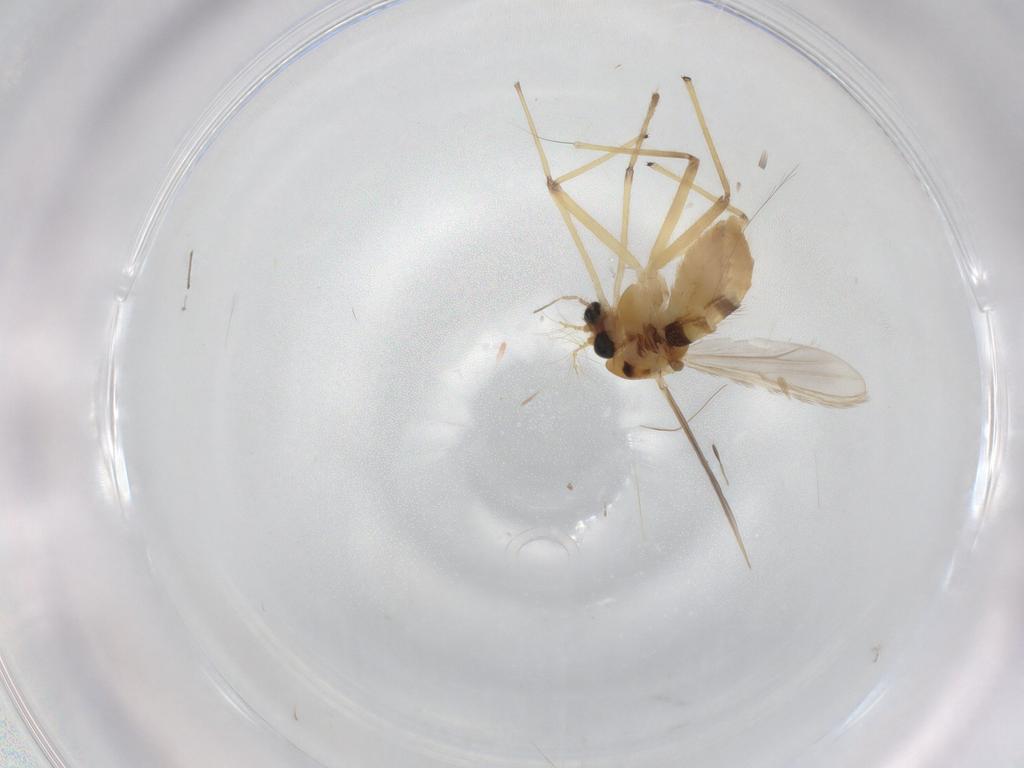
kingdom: Animalia
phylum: Arthropoda
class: Insecta
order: Diptera
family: Chironomidae
